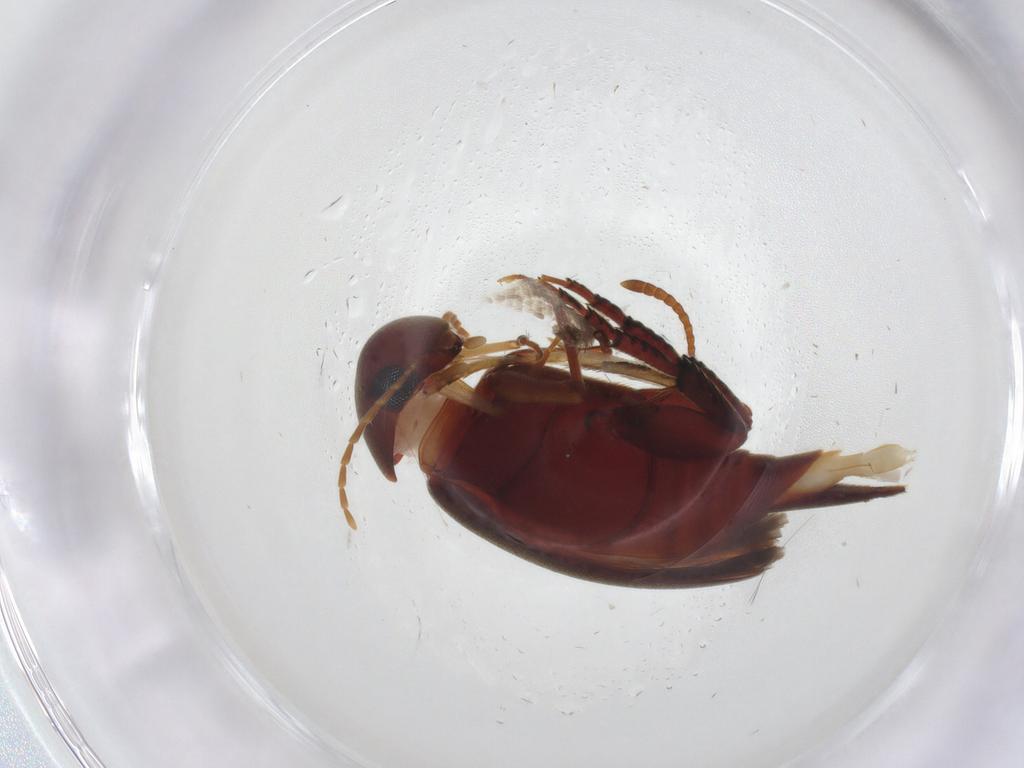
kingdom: Animalia
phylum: Arthropoda
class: Insecta
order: Coleoptera
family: Mordellidae
